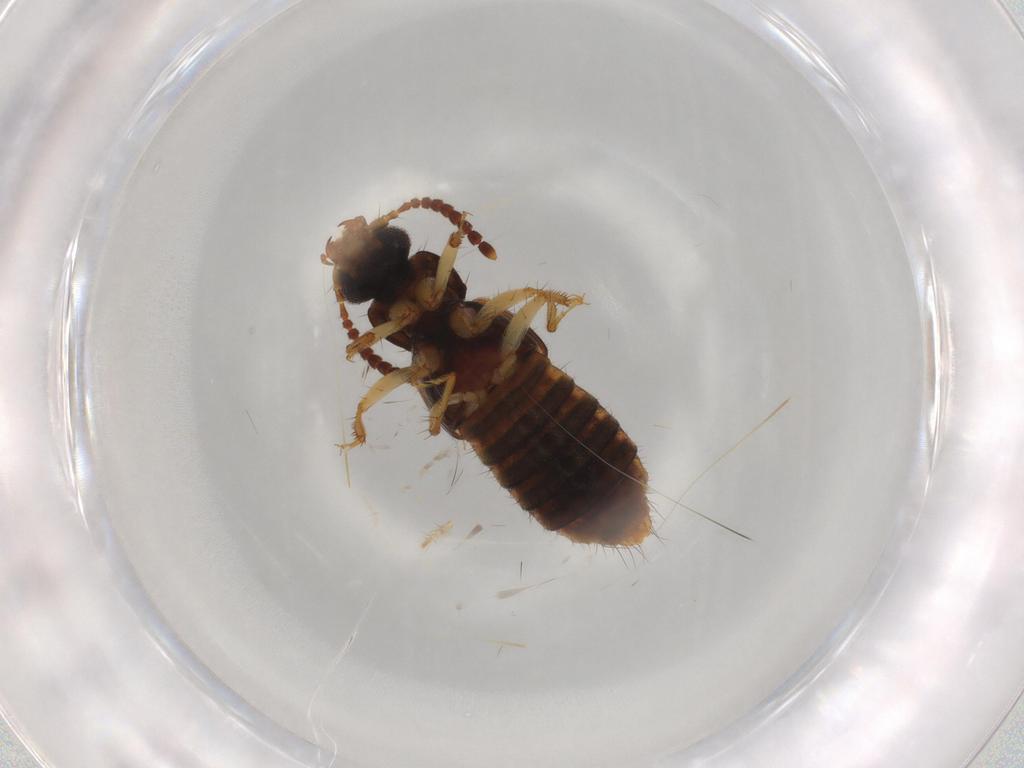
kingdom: Animalia
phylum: Arthropoda
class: Insecta
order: Coleoptera
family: Staphylinidae
